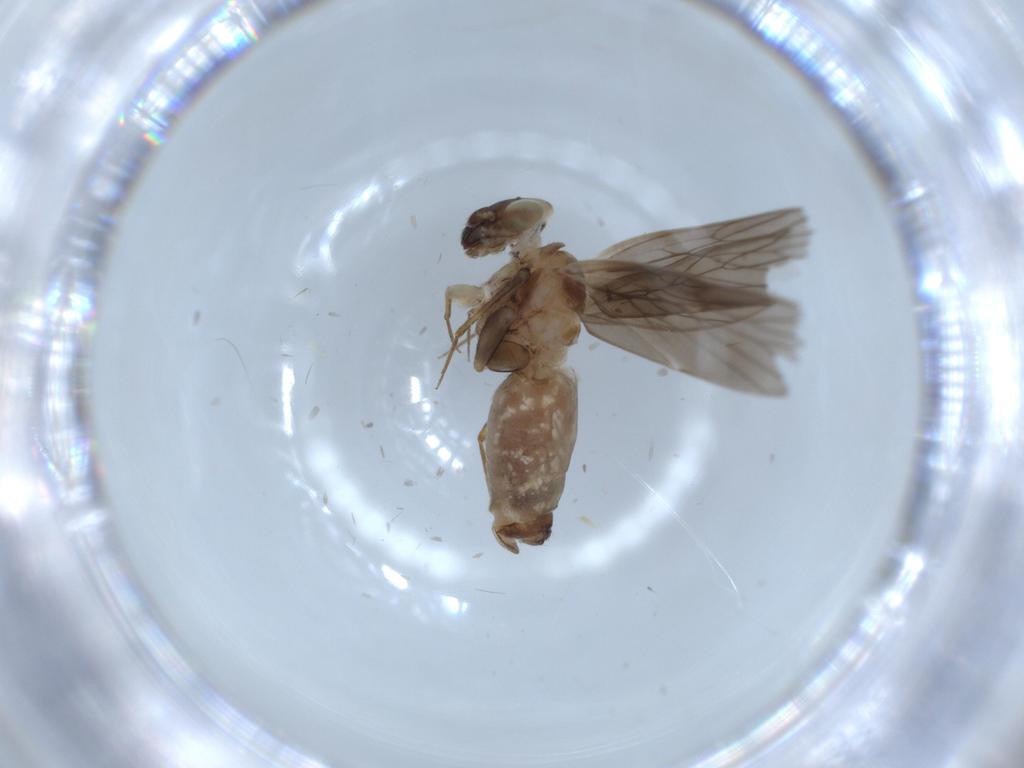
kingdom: Animalia
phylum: Arthropoda
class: Insecta
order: Psocodea
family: Lepidopsocidae
